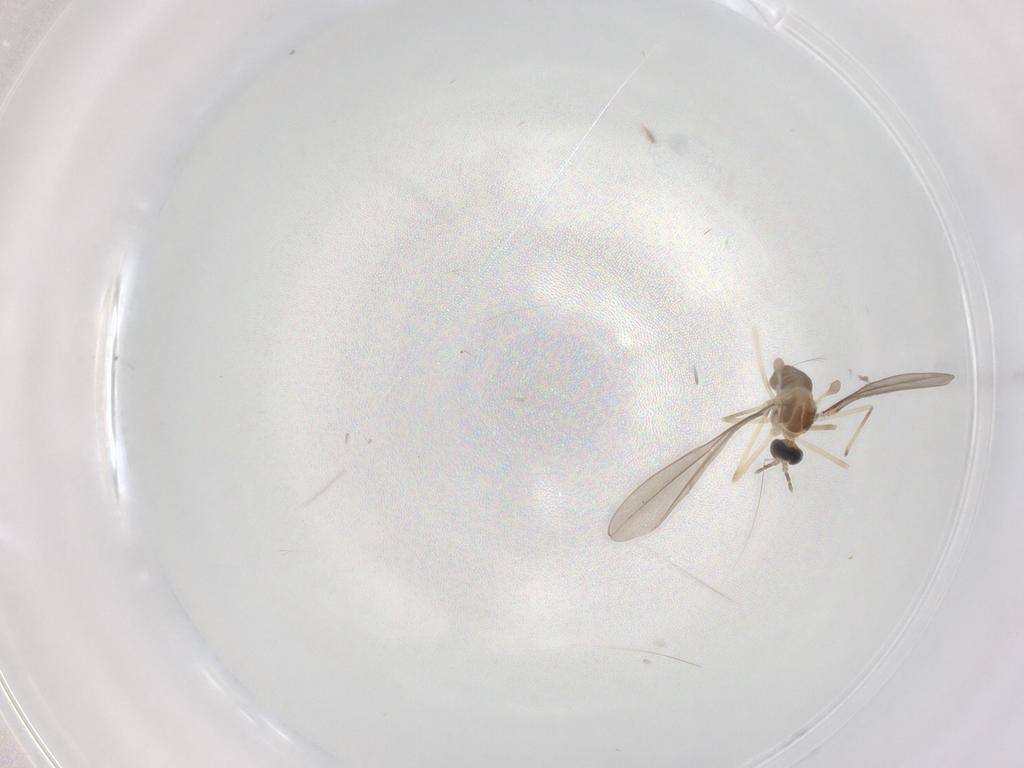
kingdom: Animalia
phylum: Arthropoda
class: Insecta
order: Diptera
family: Cecidomyiidae
